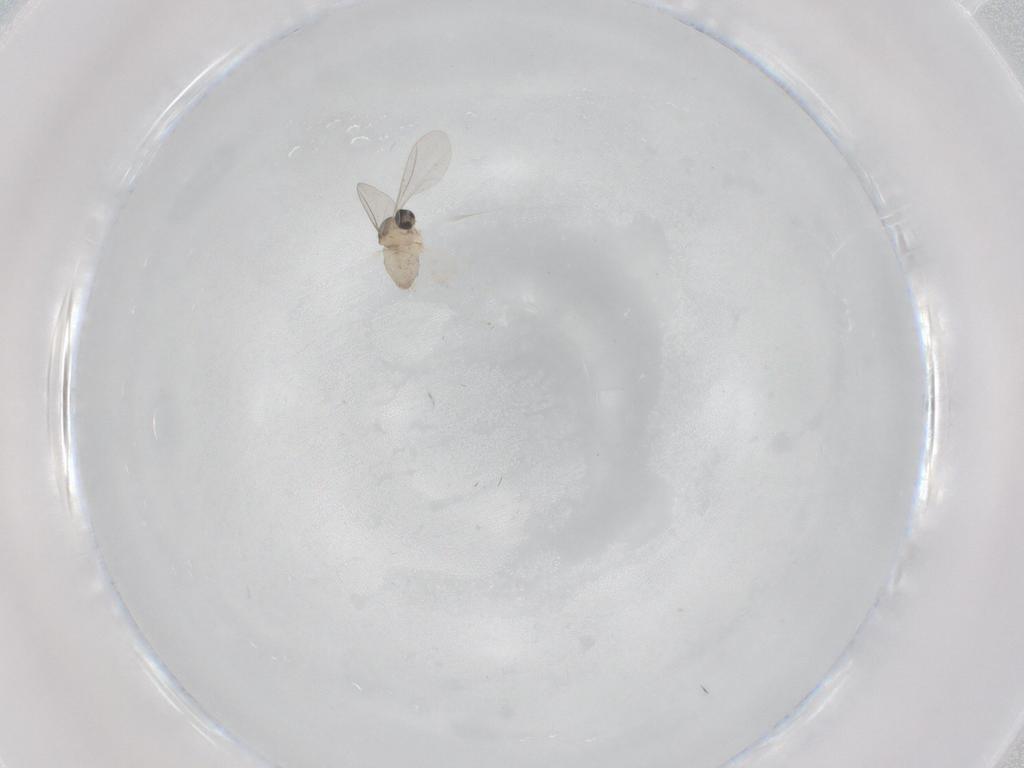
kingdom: Animalia
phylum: Arthropoda
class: Insecta
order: Diptera
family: Cecidomyiidae
